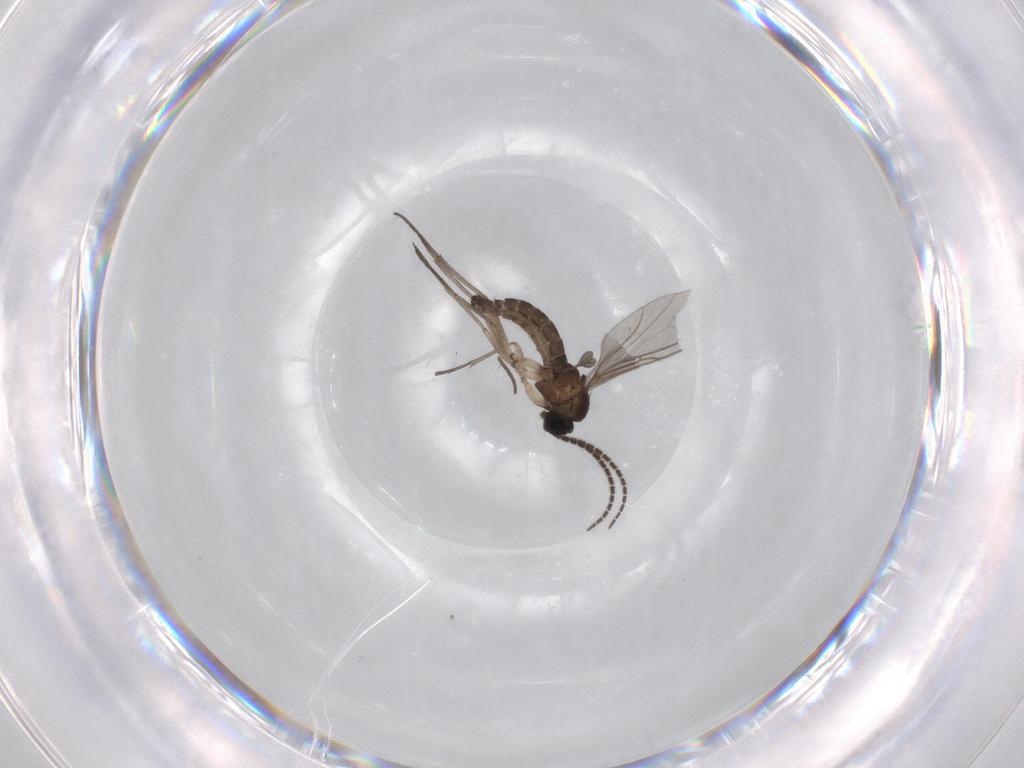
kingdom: Animalia
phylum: Arthropoda
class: Insecta
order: Diptera
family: Sciaridae
